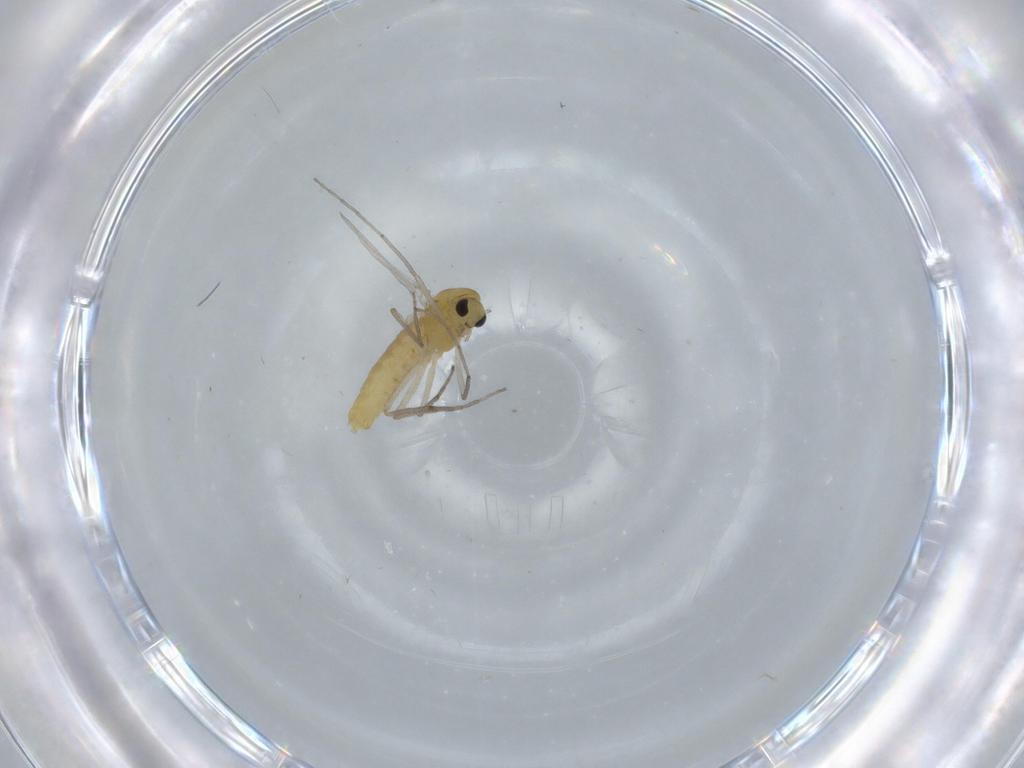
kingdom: Animalia
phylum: Arthropoda
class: Insecta
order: Diptera
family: Chironomidae
